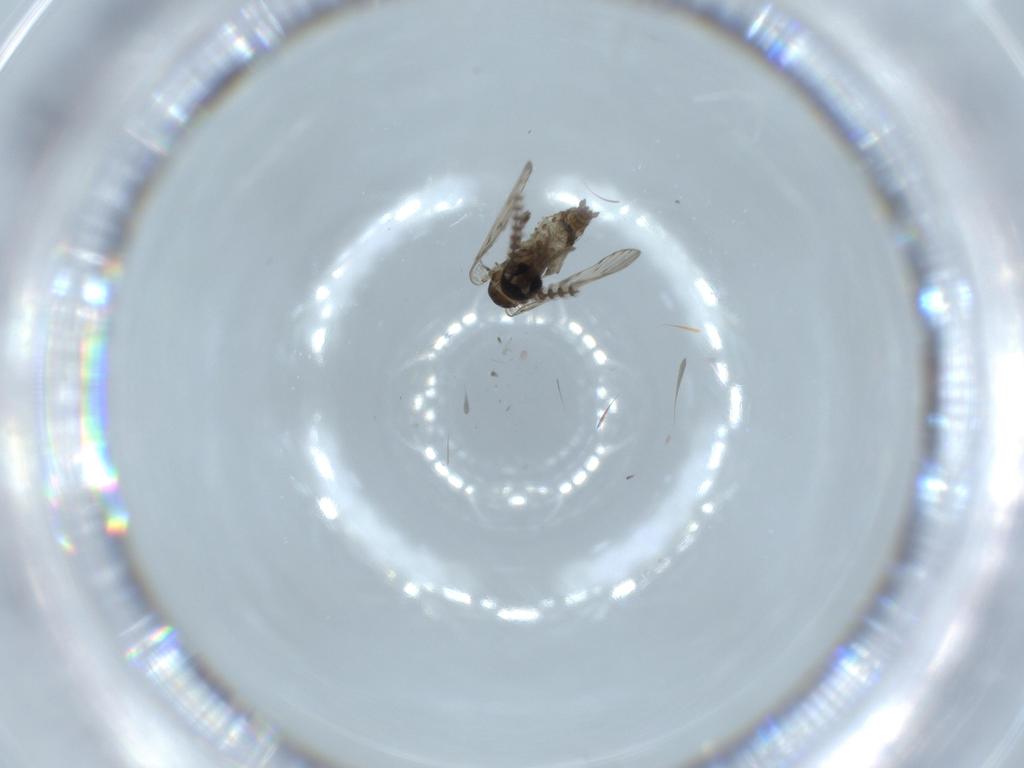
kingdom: Animalia
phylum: Arthropoda
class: Insecta
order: Diptera
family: Psychodidae
